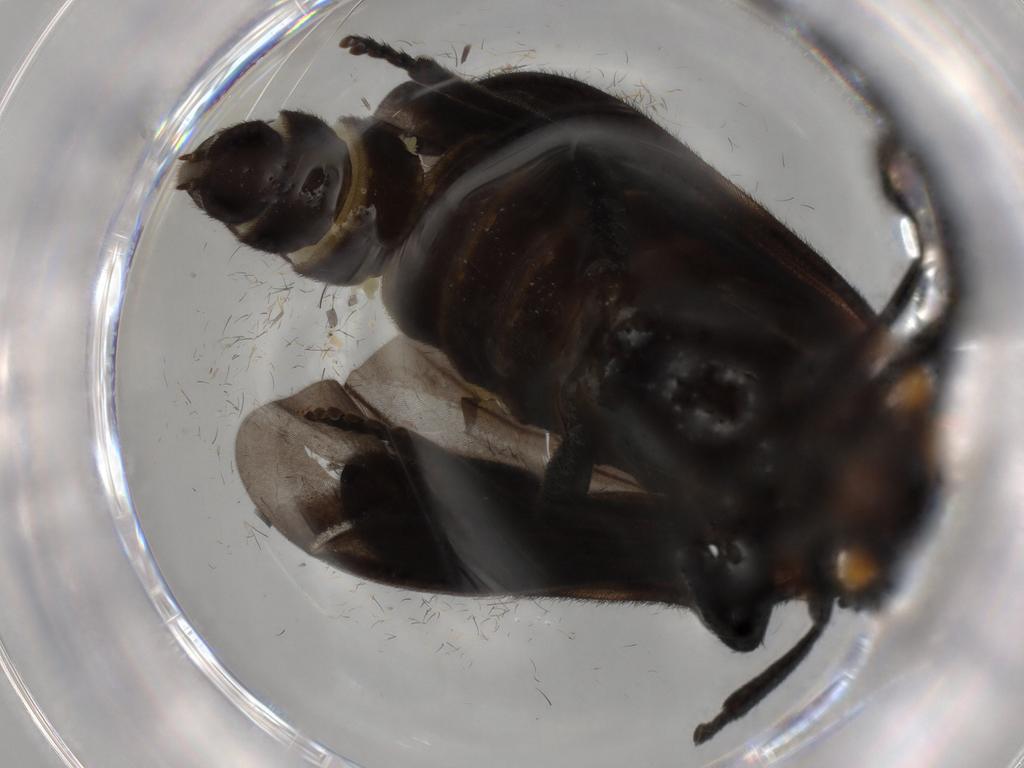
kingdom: Animalia
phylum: Arthropoda
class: Insecta
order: Coleoptera
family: Lycidae
